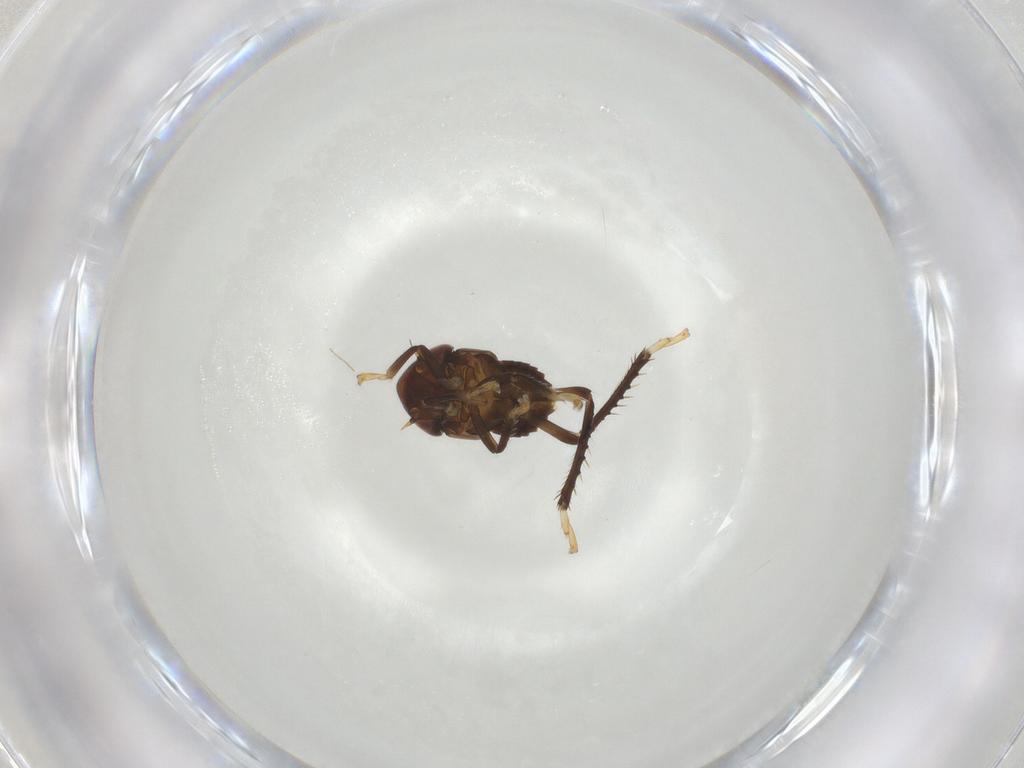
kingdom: Animalia
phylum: Arthropoda
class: Insecta
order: Hemiptera
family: Cicadellidae
